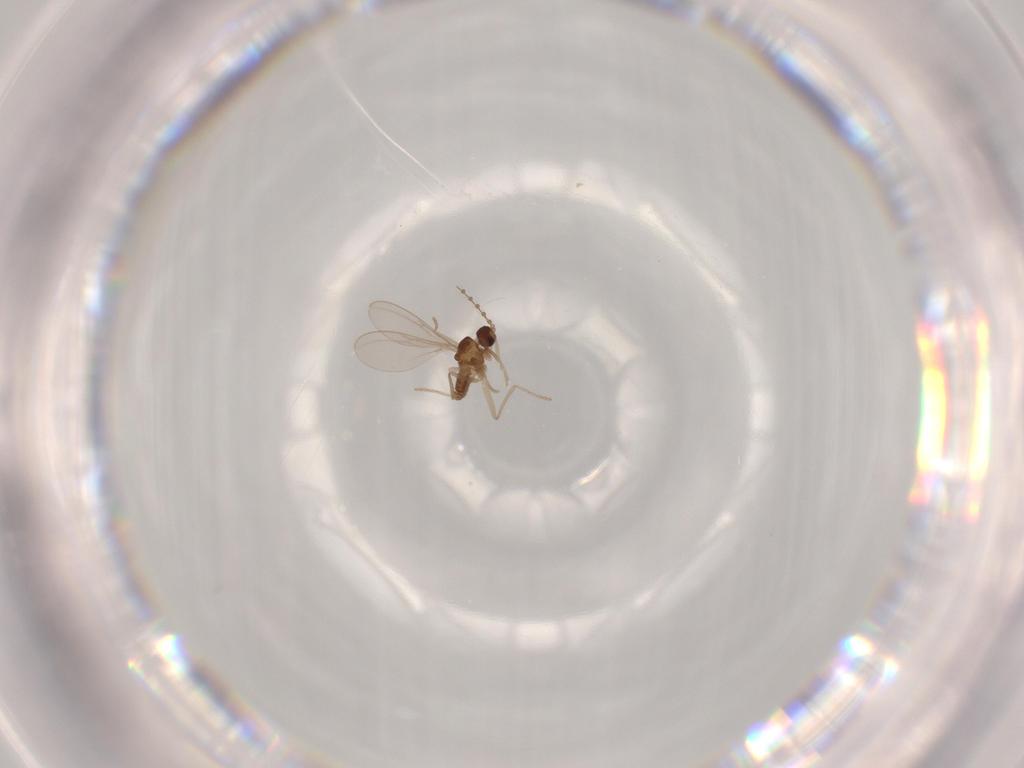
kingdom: Animalia
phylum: Arthropoda
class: Insecta
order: Diptera
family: Cecidomyiidae
